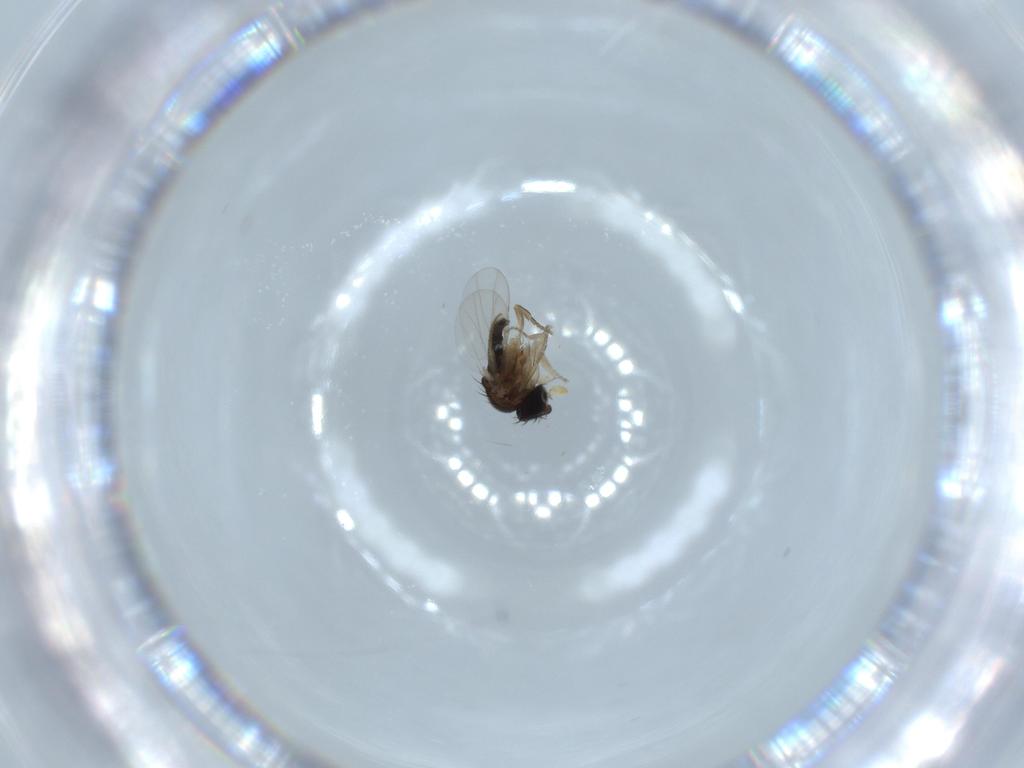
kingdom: Animalia
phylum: Arthropoda
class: Insecta
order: Diptera
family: Phoridae
